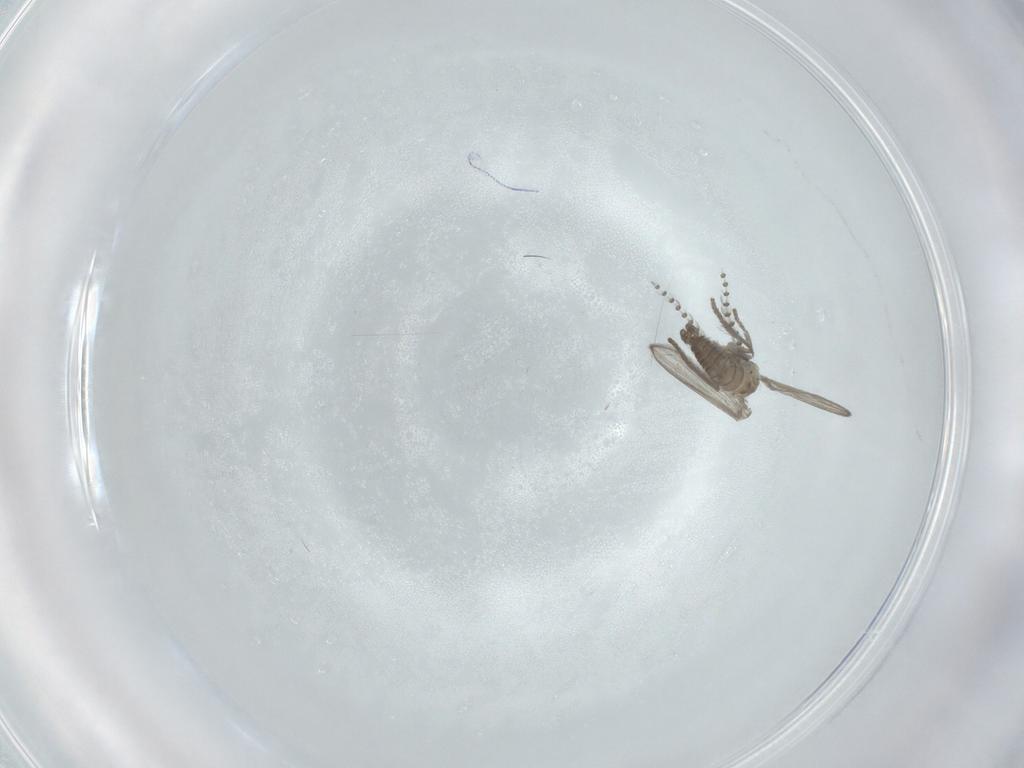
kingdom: Animalia
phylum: Arthropoda
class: Insecta
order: Diptera
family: Psychodidae
